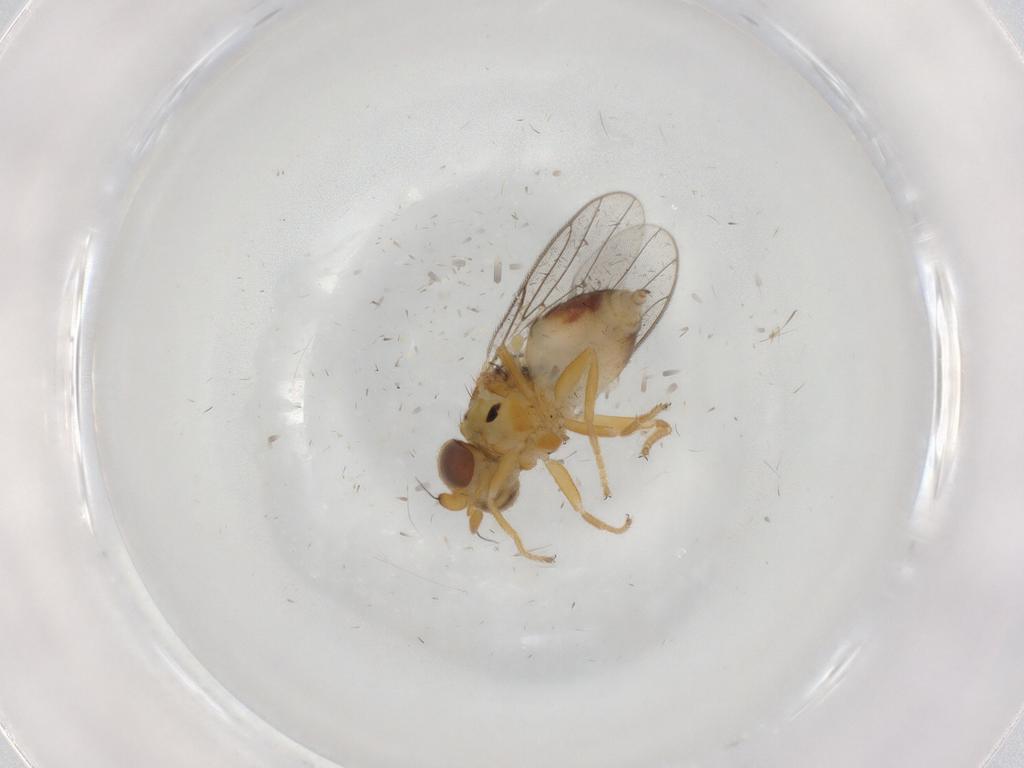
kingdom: Animalia
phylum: Arthropoda
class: Insecta
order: Diptera
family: Chloropidae
